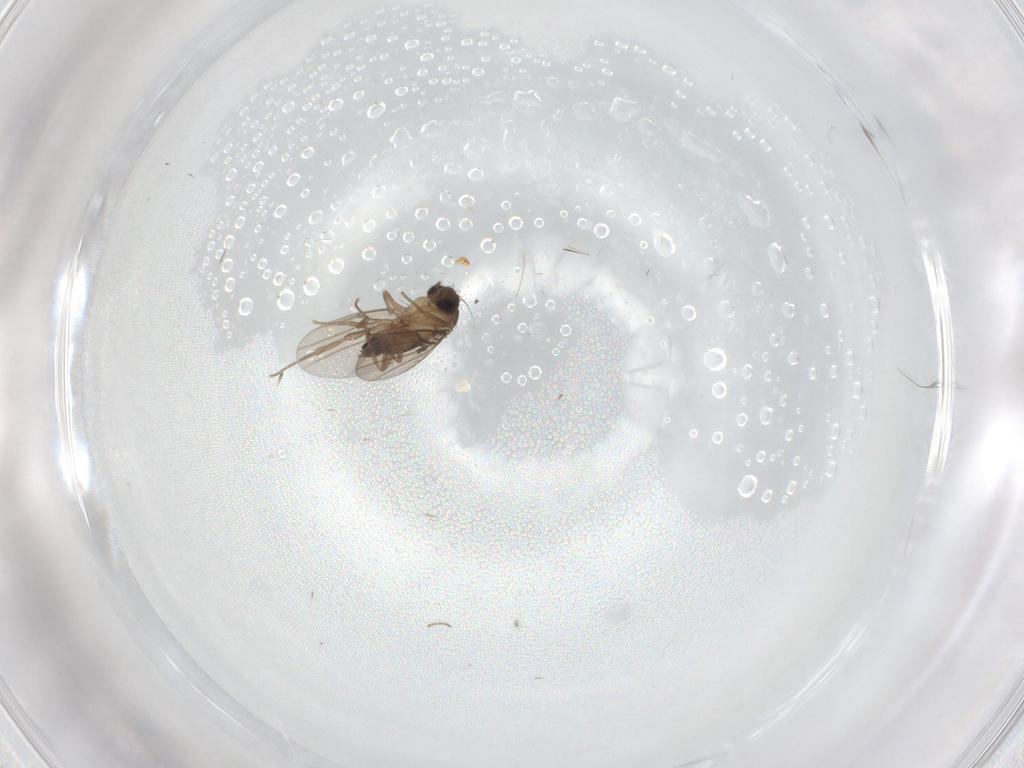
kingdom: Animalia
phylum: Arthropoda
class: Insecta
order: Diptera
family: Phoridae
